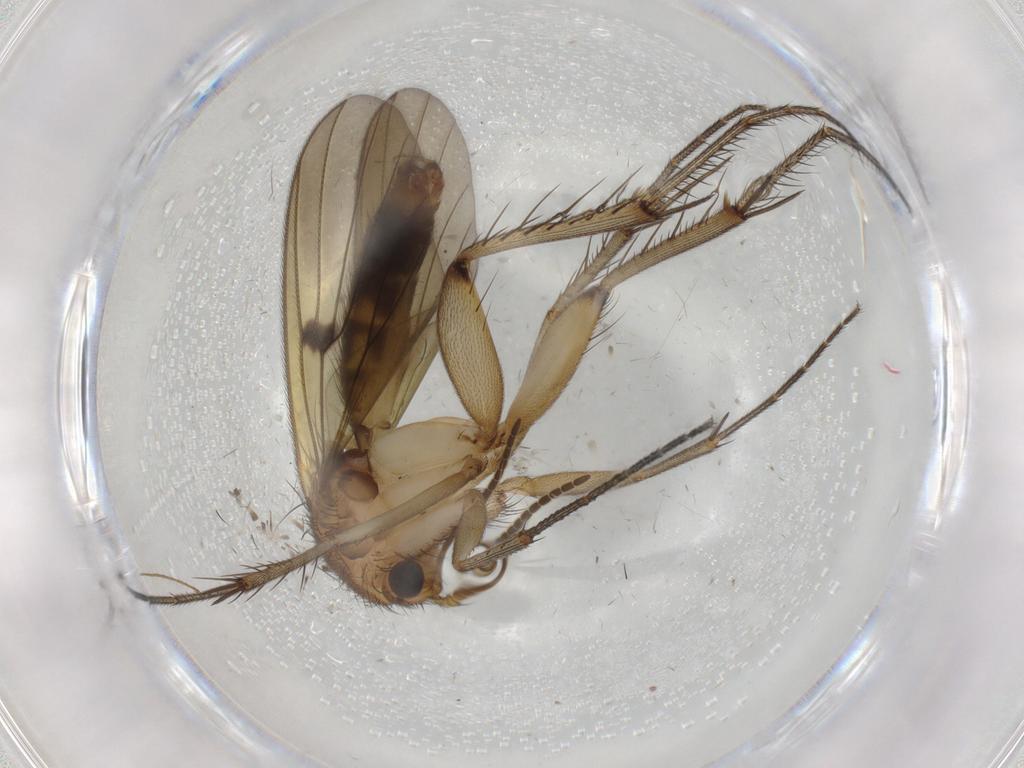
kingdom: Animalia
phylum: Arthropoda
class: Insecta
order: Diptera
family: Phoridae
